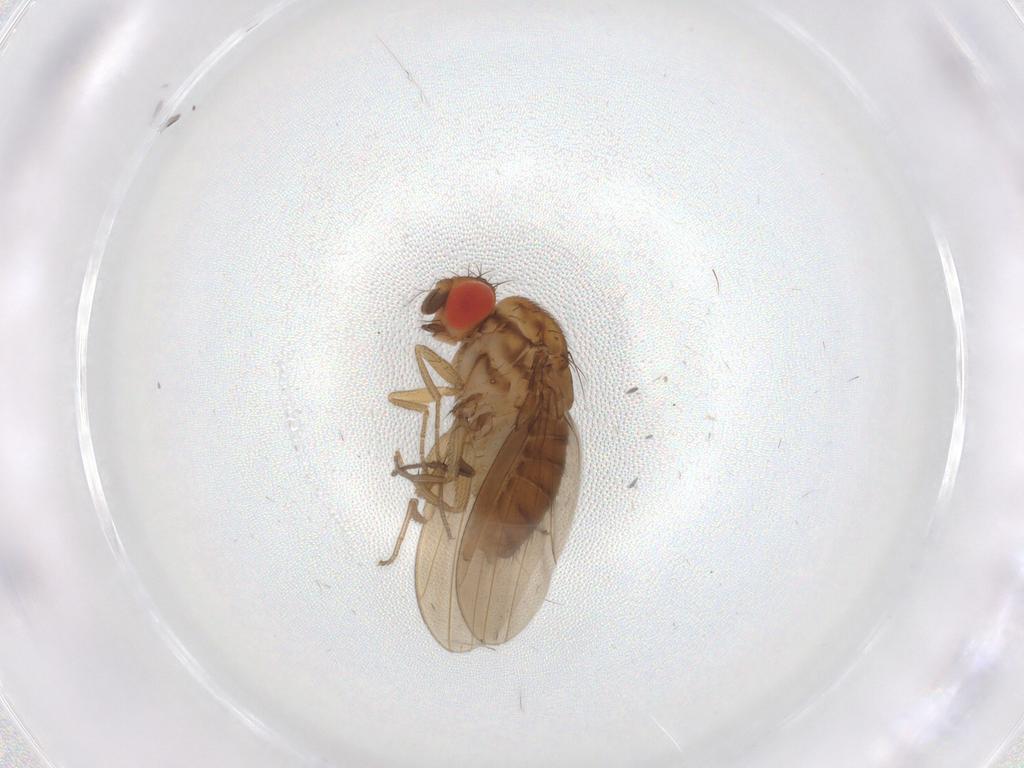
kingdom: Animalia
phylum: Arthropoda
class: Insecta
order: Diptera
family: Drosophilidae
